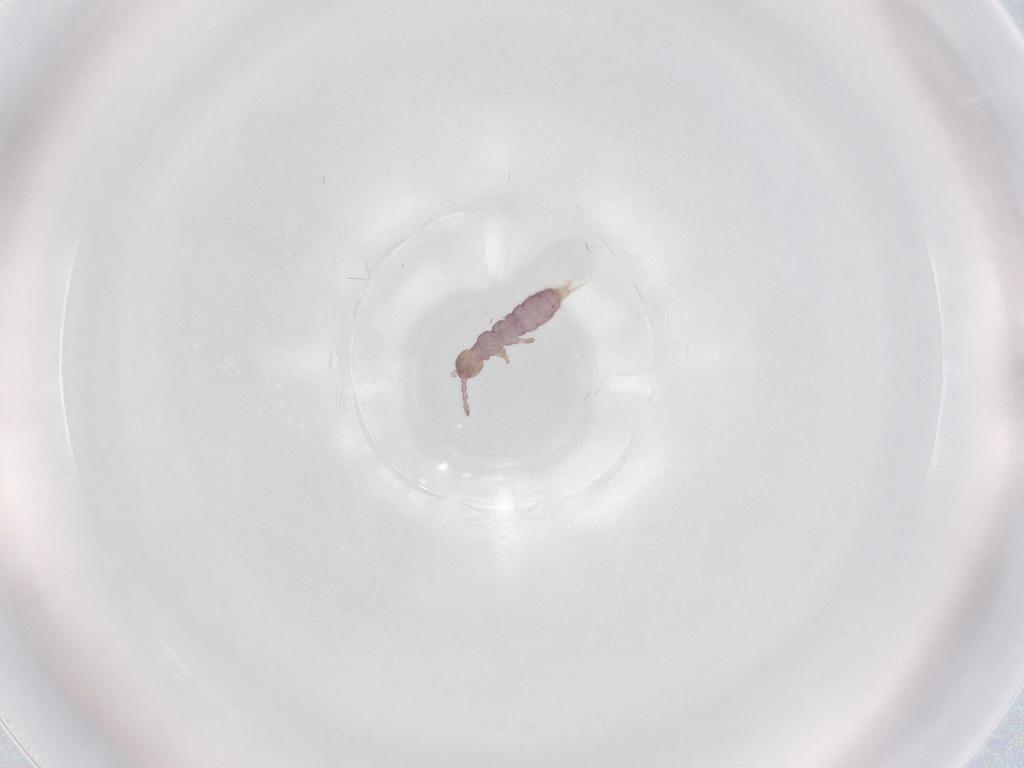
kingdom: Animalia
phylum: Arthropoda
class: Collembola
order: Entomobryomorpha
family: Isotomidae
